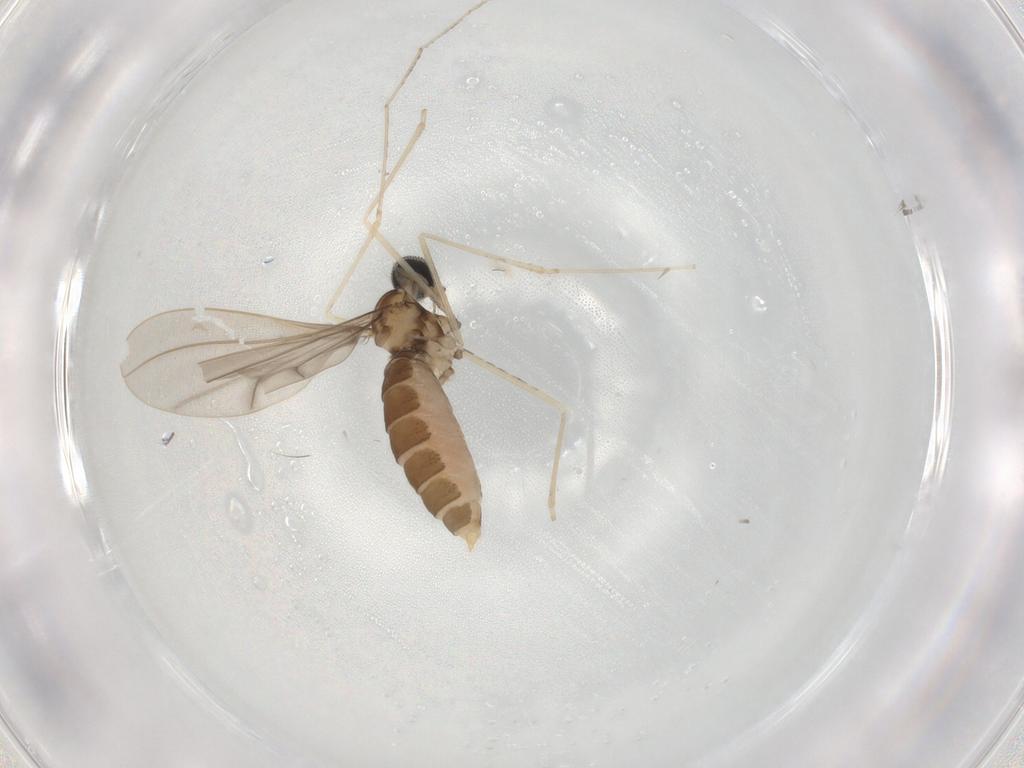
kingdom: Animalia
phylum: Arthropoda
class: Insecta
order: Diptera
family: Cecidomyiidae
